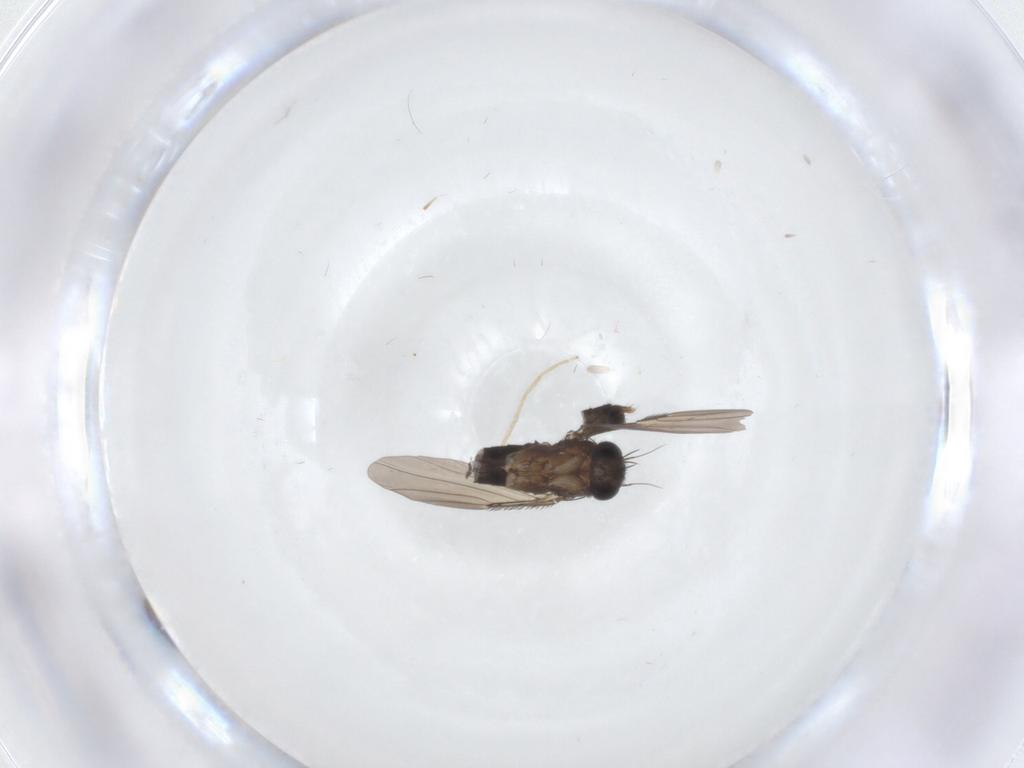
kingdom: Animalia
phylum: Arthropoda
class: Insecta
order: Diptera
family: Phoridae
